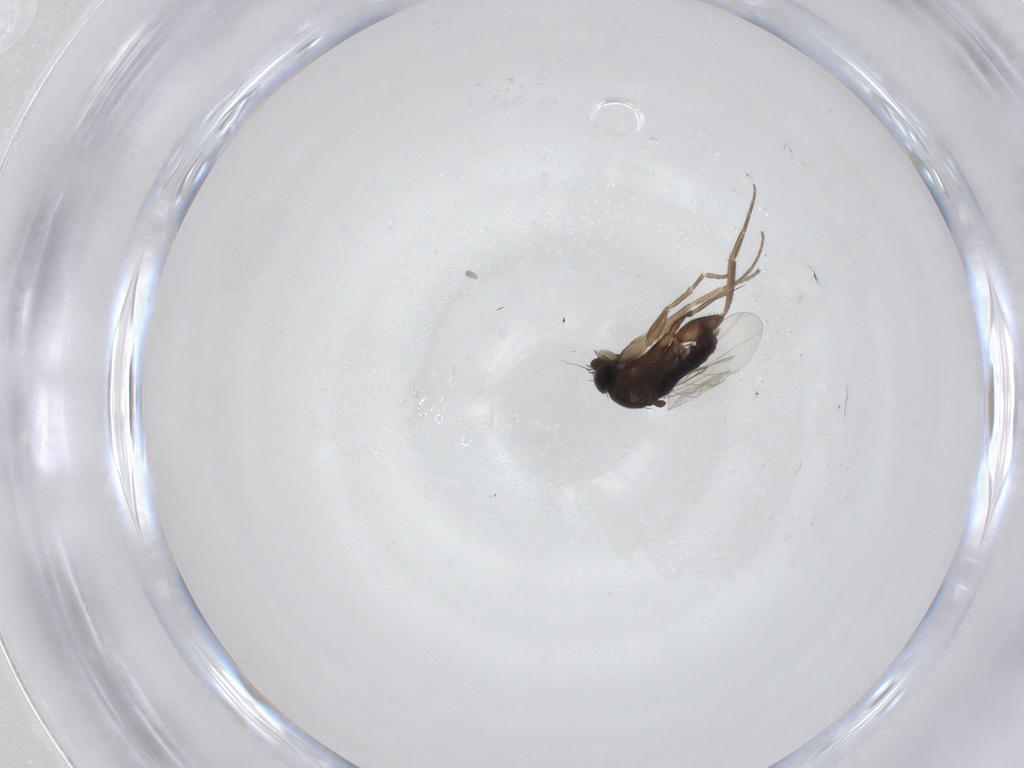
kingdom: Animalia
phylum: Arthropoda
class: Insecta
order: Diptera
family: Phoridae
